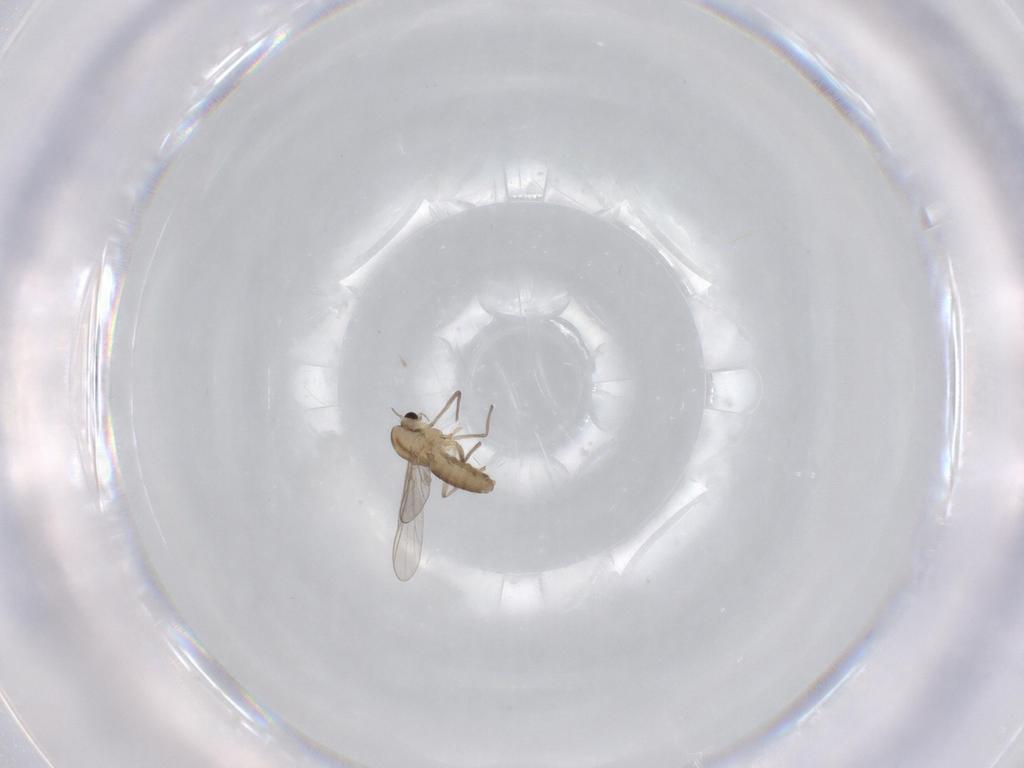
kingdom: Animalia
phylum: Arthropoda
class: Insecta
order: Diptera
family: Chironomidae
